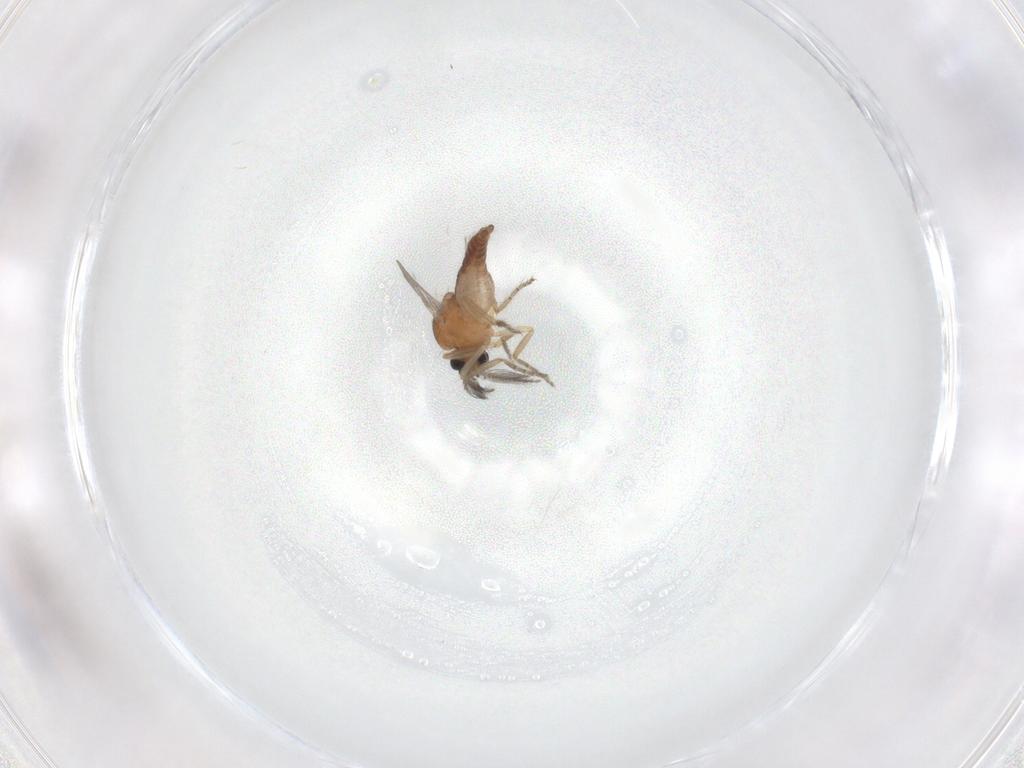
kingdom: Animalia
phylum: Arthropoda
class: Insecta
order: Diptera
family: Ceratopogonidae
